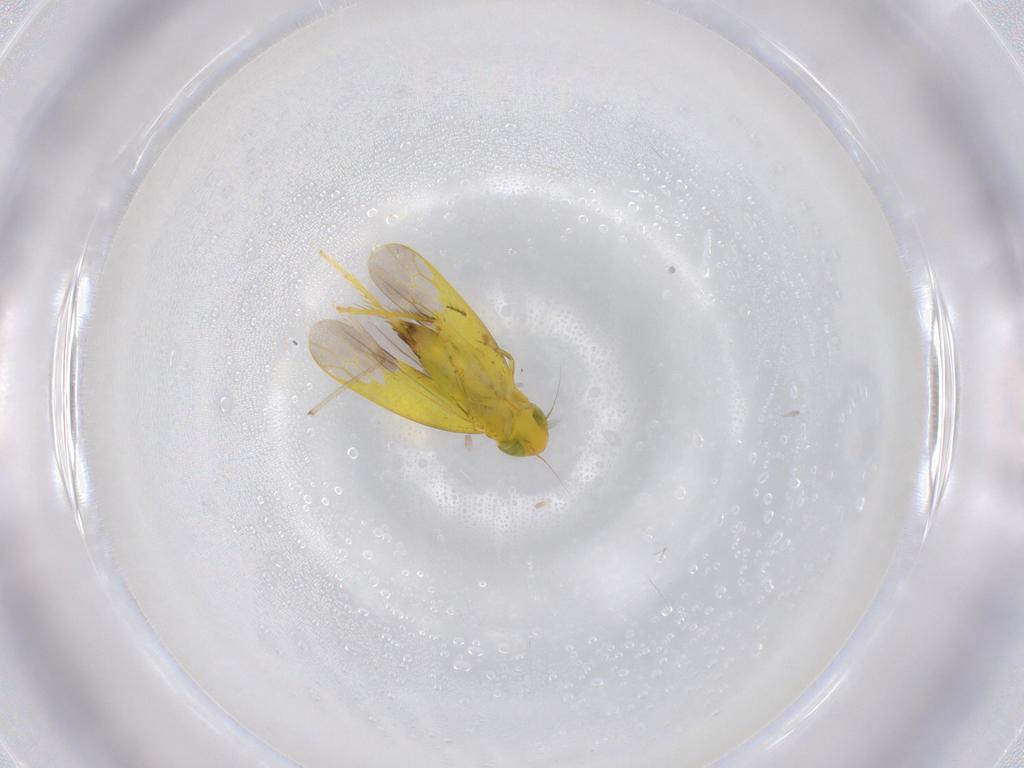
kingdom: Animalia
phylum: Arthropoda
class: Insecta
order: Hemiptera
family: Cicadellidae
